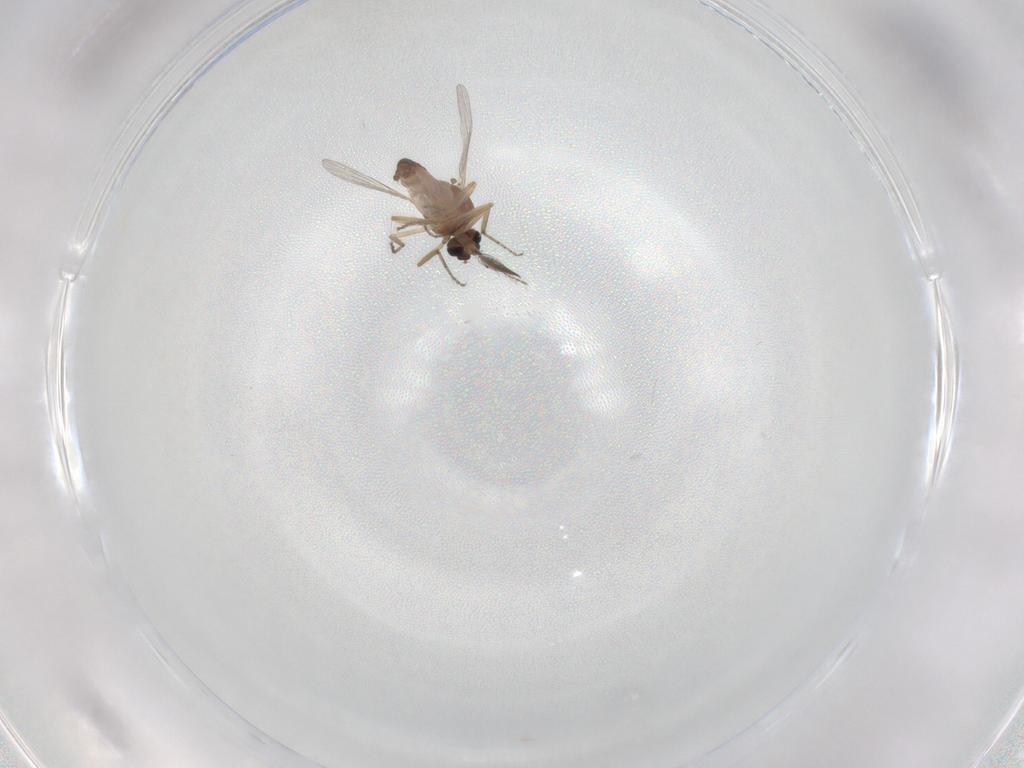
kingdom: Animalia
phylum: Arthropoda
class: Insecta
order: Diptera
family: Ceratopogonidae
